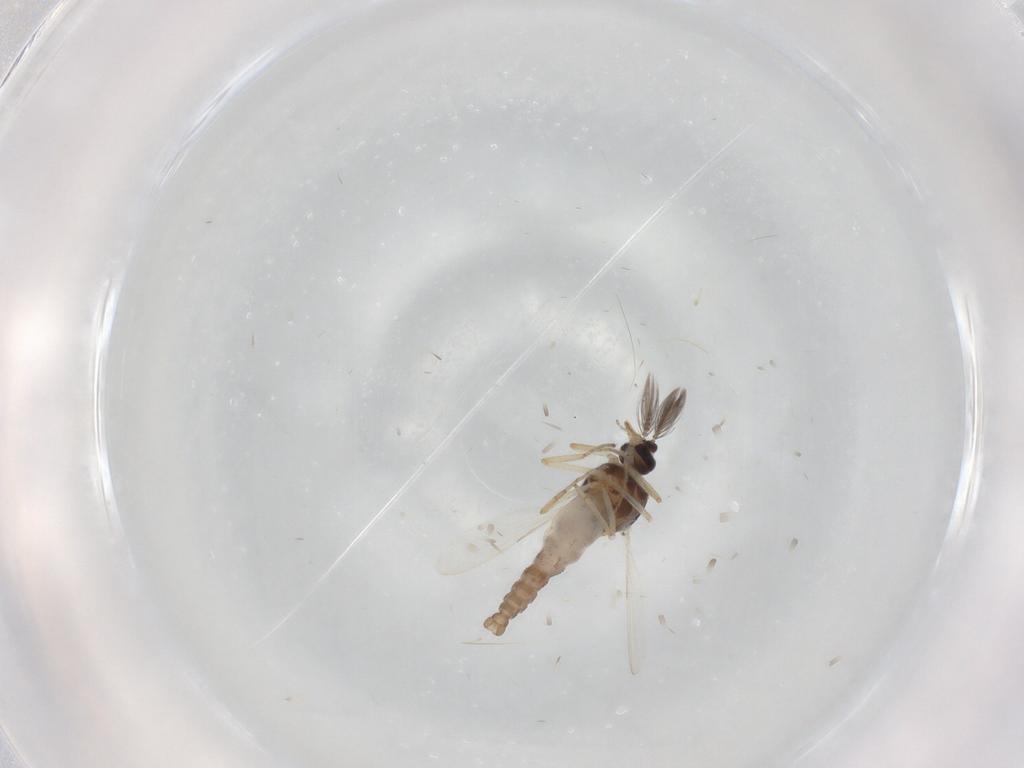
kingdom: Animalia
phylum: Arthropoda
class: Insecta
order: Diptera
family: Ceratopogonidae
